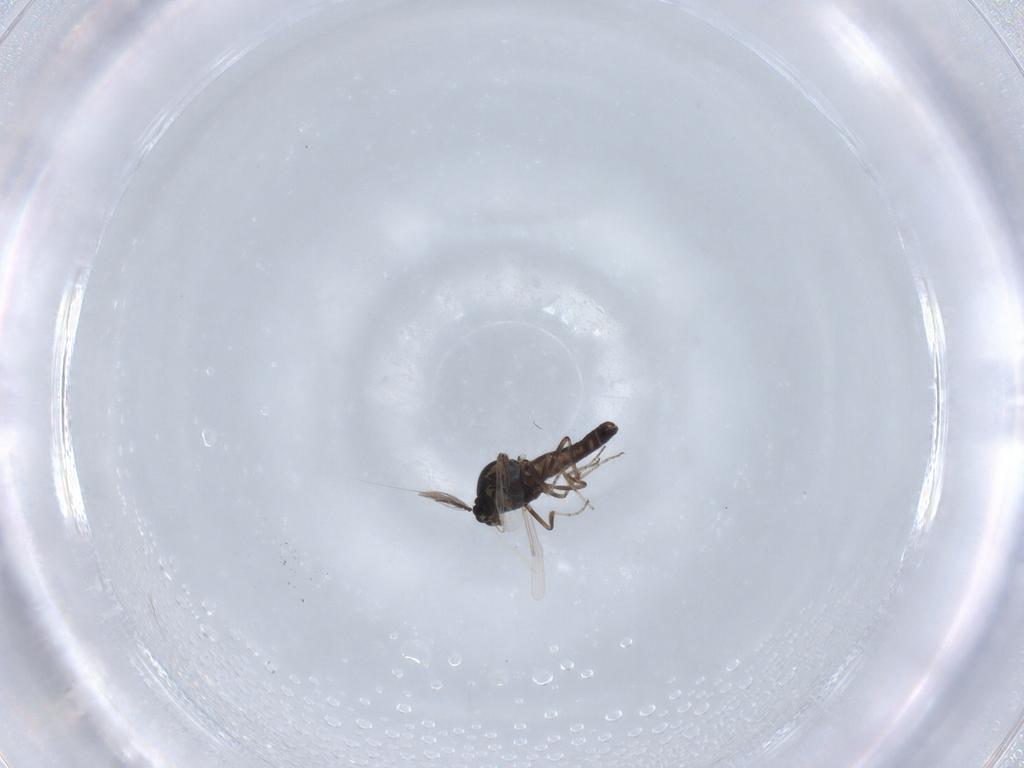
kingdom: Animalia
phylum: Arthropoda
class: Insecta
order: Diptera
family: Ceratopogonidae
